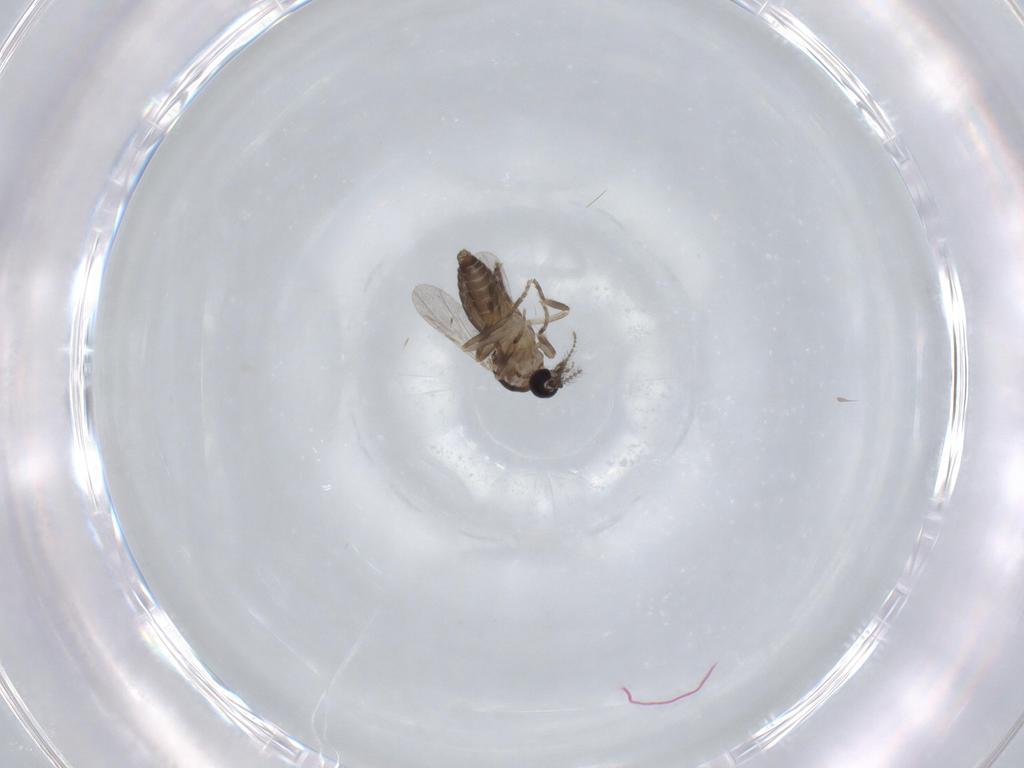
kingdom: Animalia
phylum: Arthropoda
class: Insecta
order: Diptera
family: Ceratopogonidae
